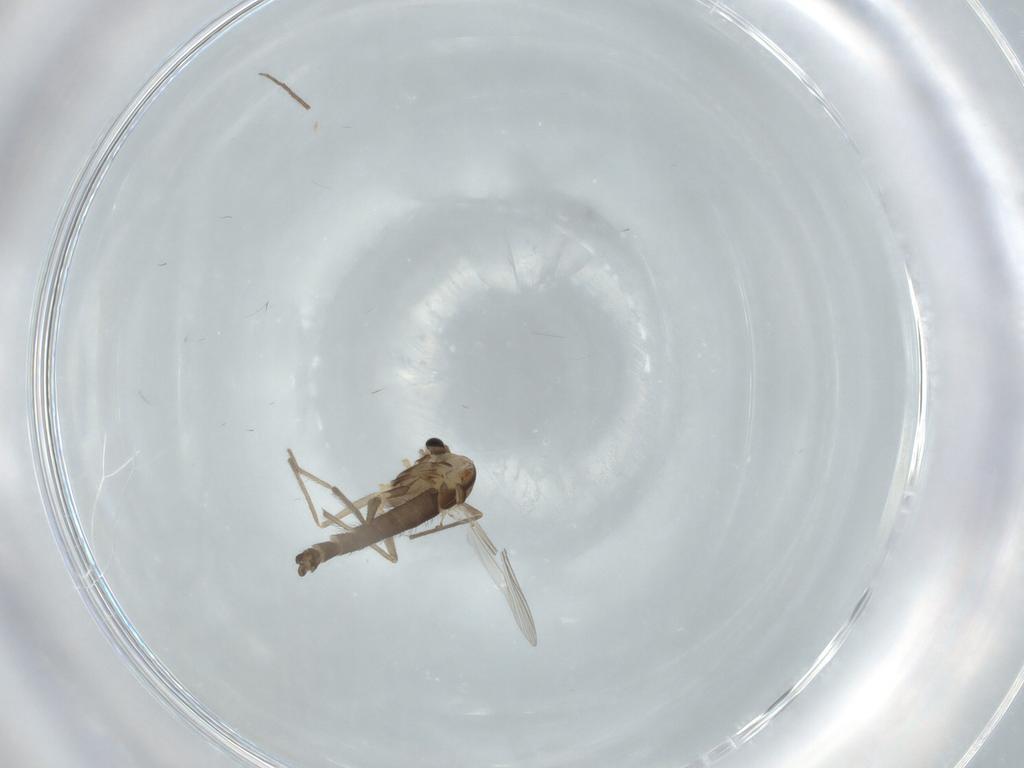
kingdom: Animalia
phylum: Arthropoda
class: Insecta
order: Diptera
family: Chironomidae
